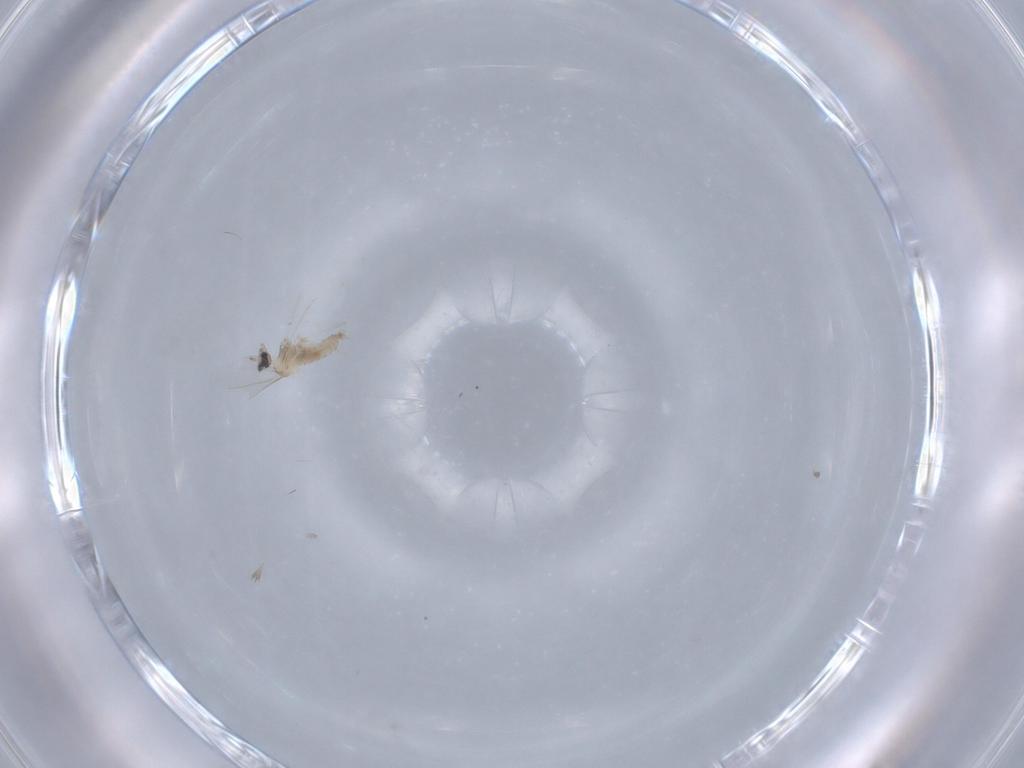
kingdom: Animalia
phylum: Arthropoda
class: Insecta
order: Diptera
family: Cecidomyiidae
